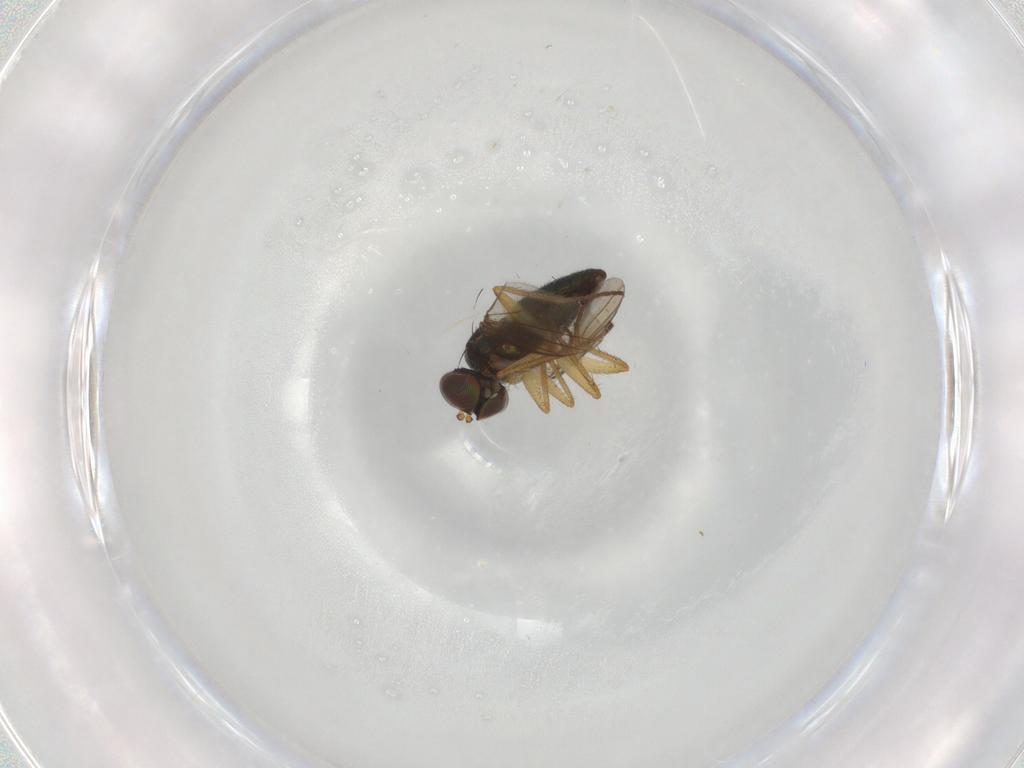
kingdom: Animalia
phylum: Arthropoda
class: Insecta
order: Diptera
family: Dolichopodidae
